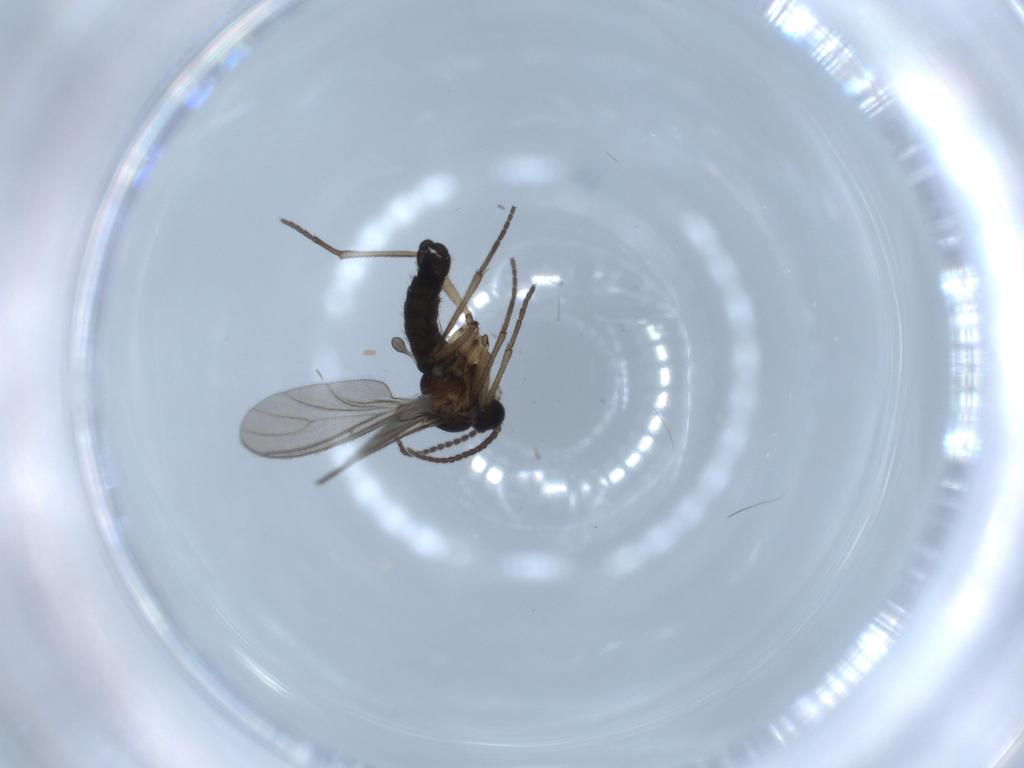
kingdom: Animalia
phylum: Arthropoda
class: Insecta
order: Diptera
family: Sciaridae
